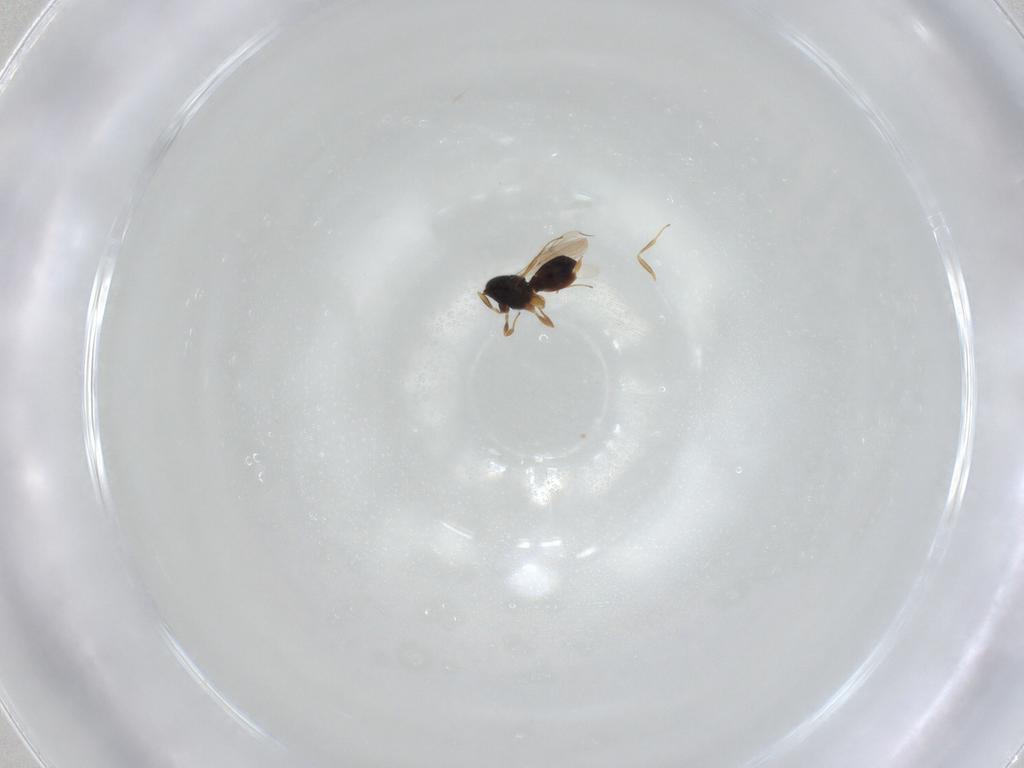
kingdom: Animalia
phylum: Arthropoda
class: Insecta
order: Hymenoptera
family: Scelionidae
